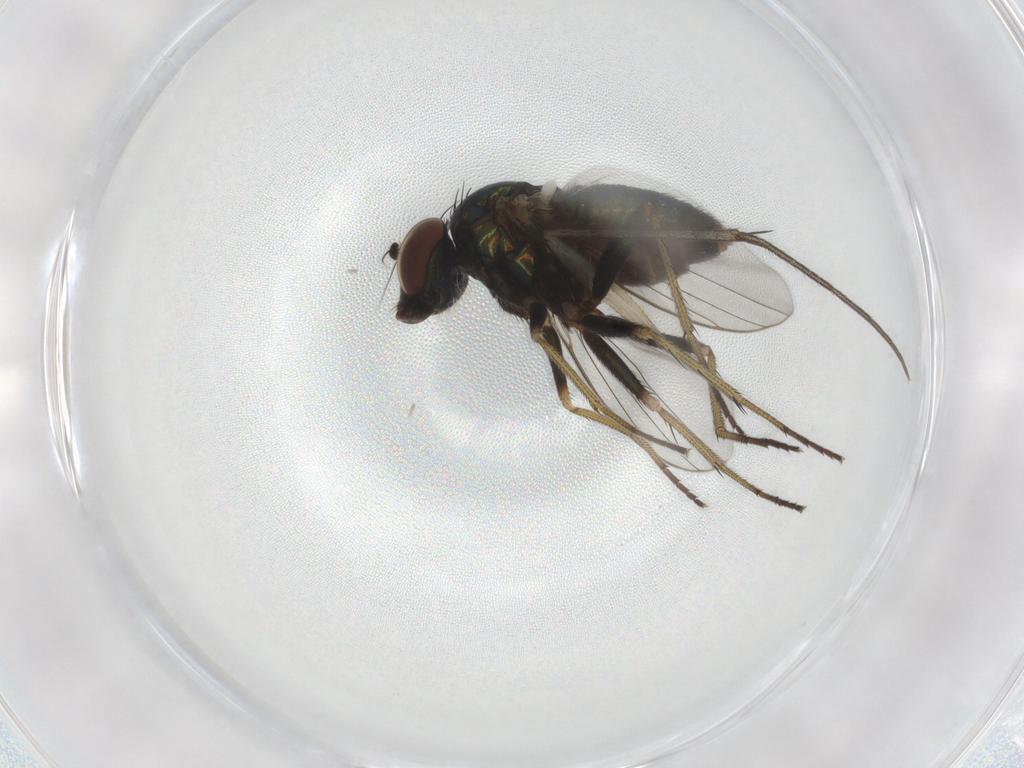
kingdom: Animalia
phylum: Arthropoda
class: Insecta
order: Diptera
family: Dolichopodidae
